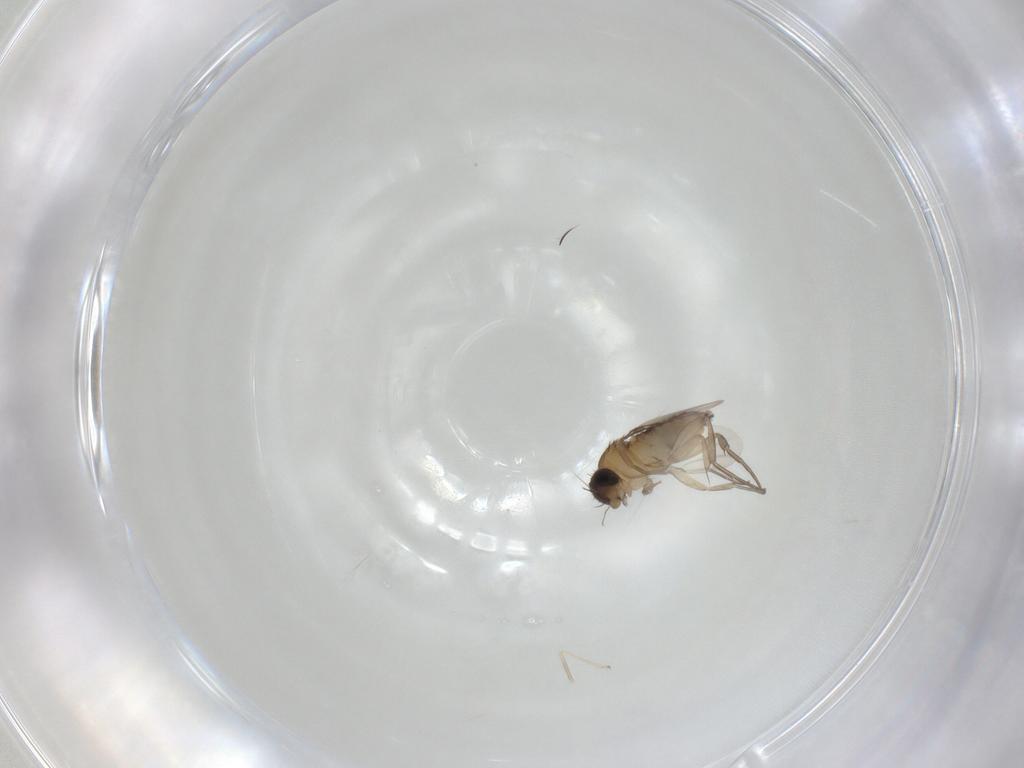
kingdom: Animalia
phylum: Arthropoda
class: Insecta
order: Diptera
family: Phoridae
